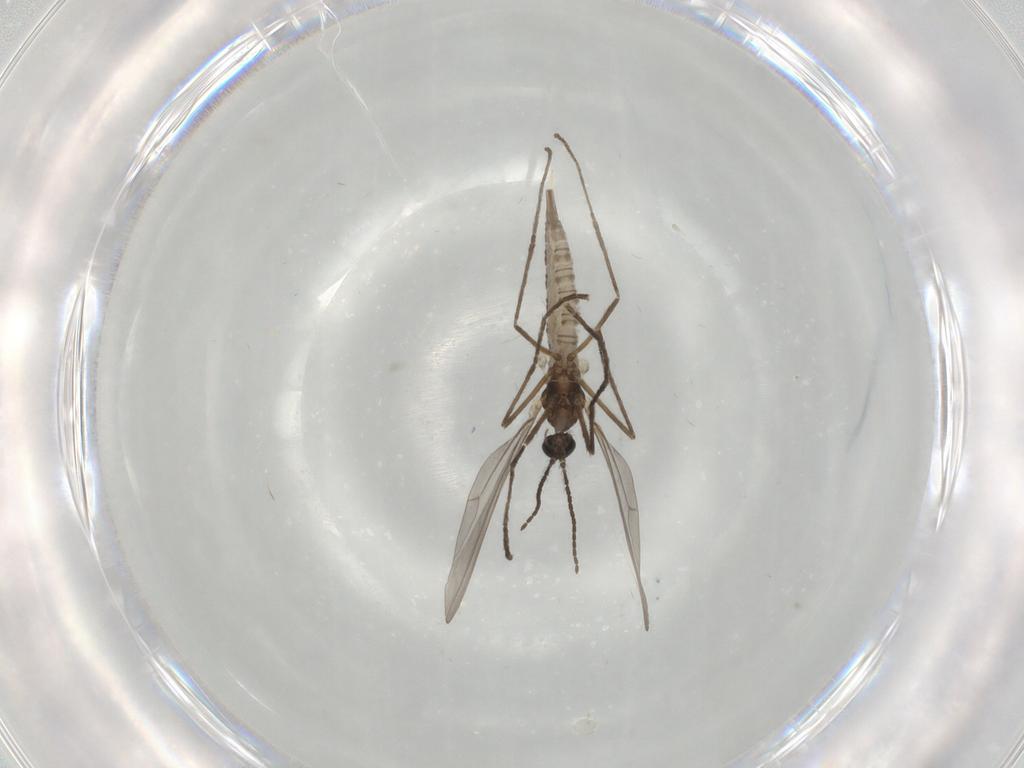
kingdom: Animalia
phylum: Arthropoda
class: Insecta
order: Diptera
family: Cecidomyiidae
